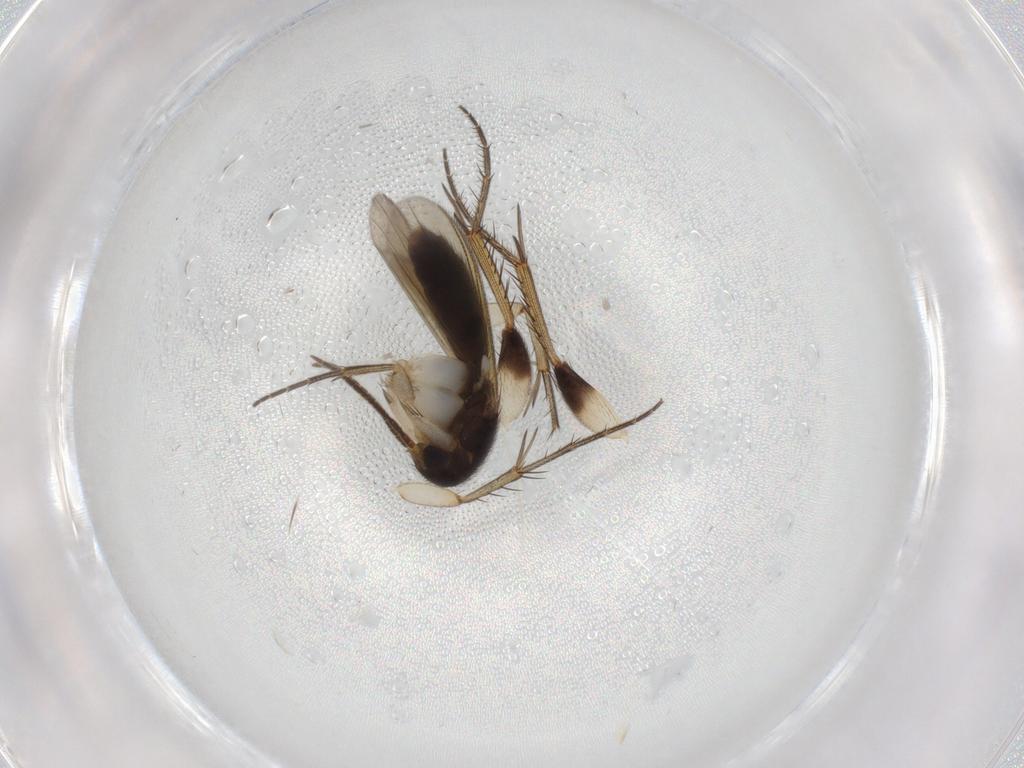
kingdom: Animalia
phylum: Arthropoda
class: Insecta
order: Diptera
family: Mycetophilidae
